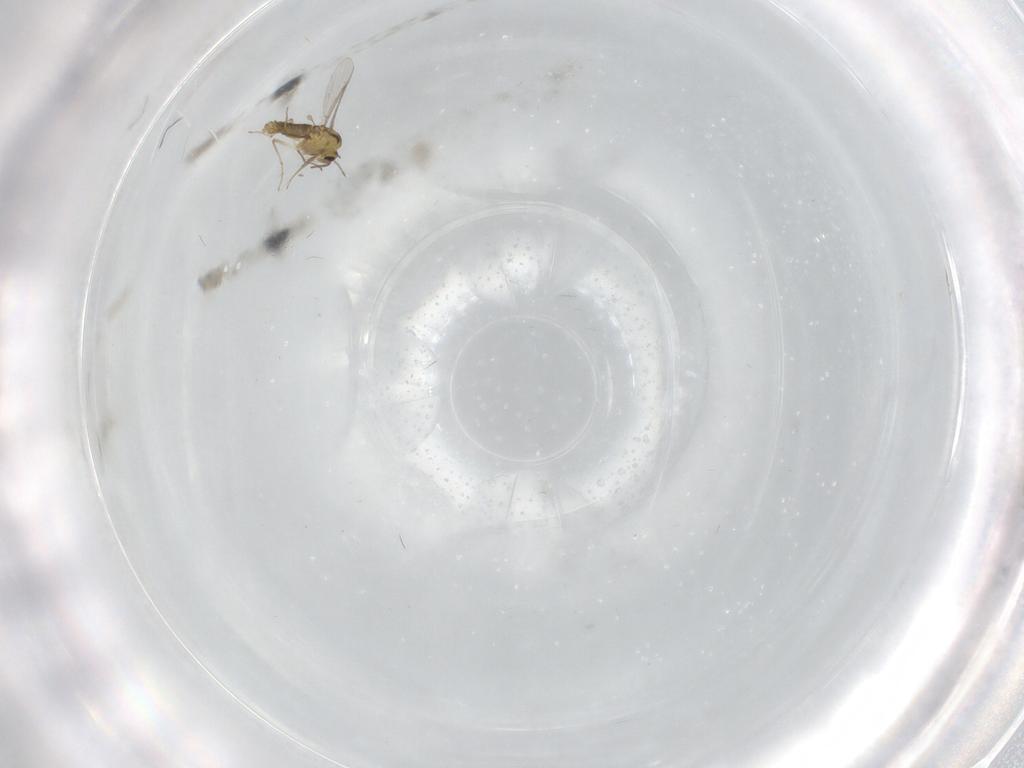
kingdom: Animalia
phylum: Arthropoda
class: Insecta
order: Diptera
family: Chironomidae
